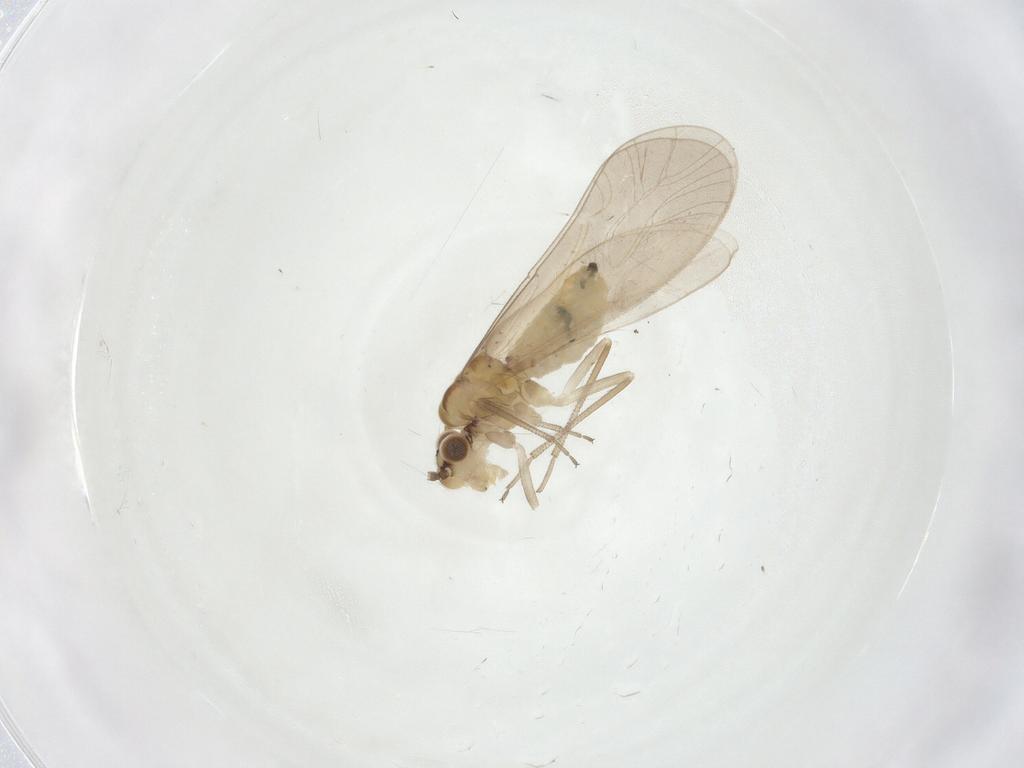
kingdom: Animalia
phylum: Arthropoda
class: Insecta
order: Psocodea
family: Caeciliusidae
